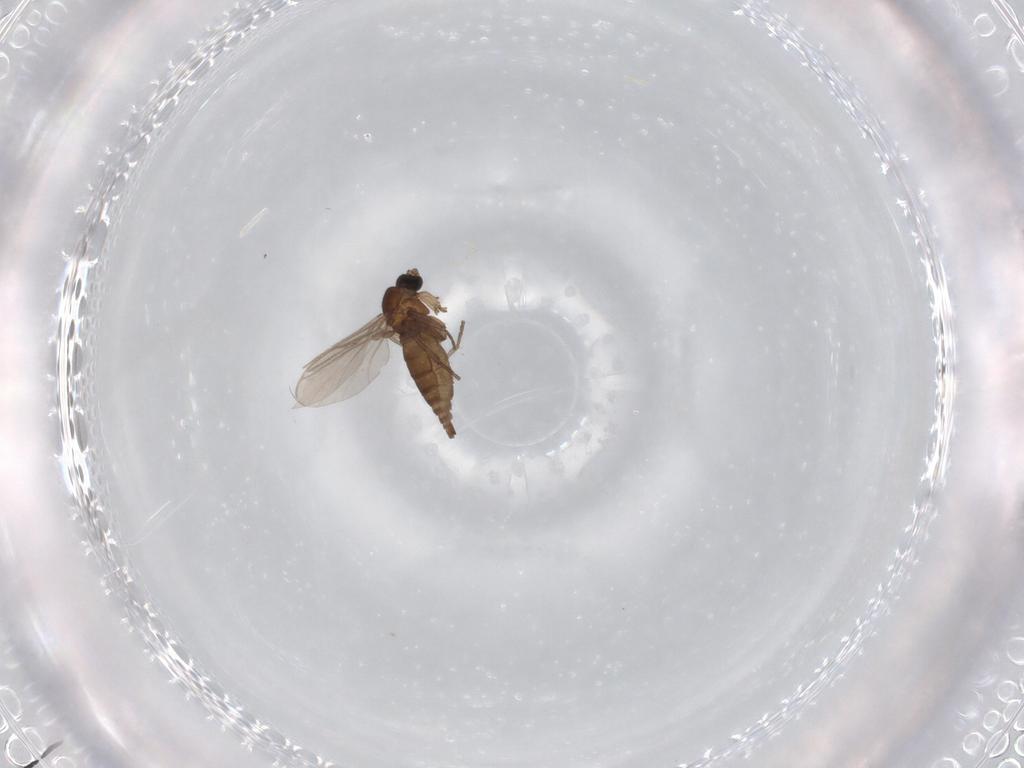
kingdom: Animalia
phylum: Arthropoda
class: Insecta
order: Diptera
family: Scatopsidae
